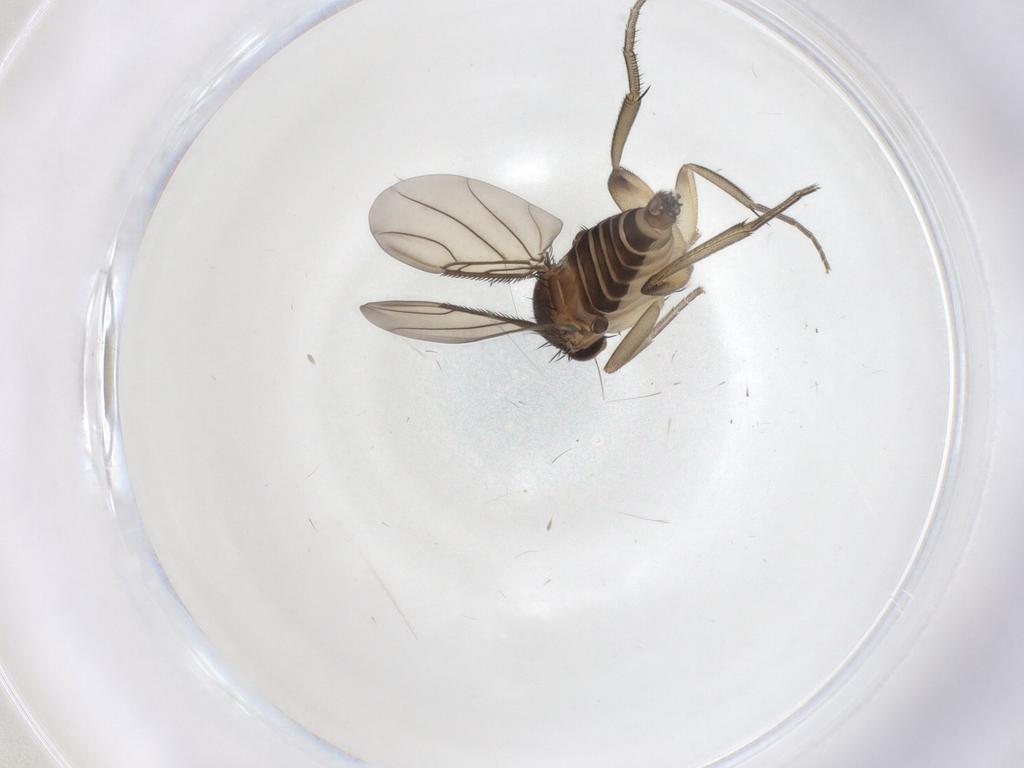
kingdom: Animalia
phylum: Arthropoda
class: Insecta
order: Diptera
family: Phoridae
